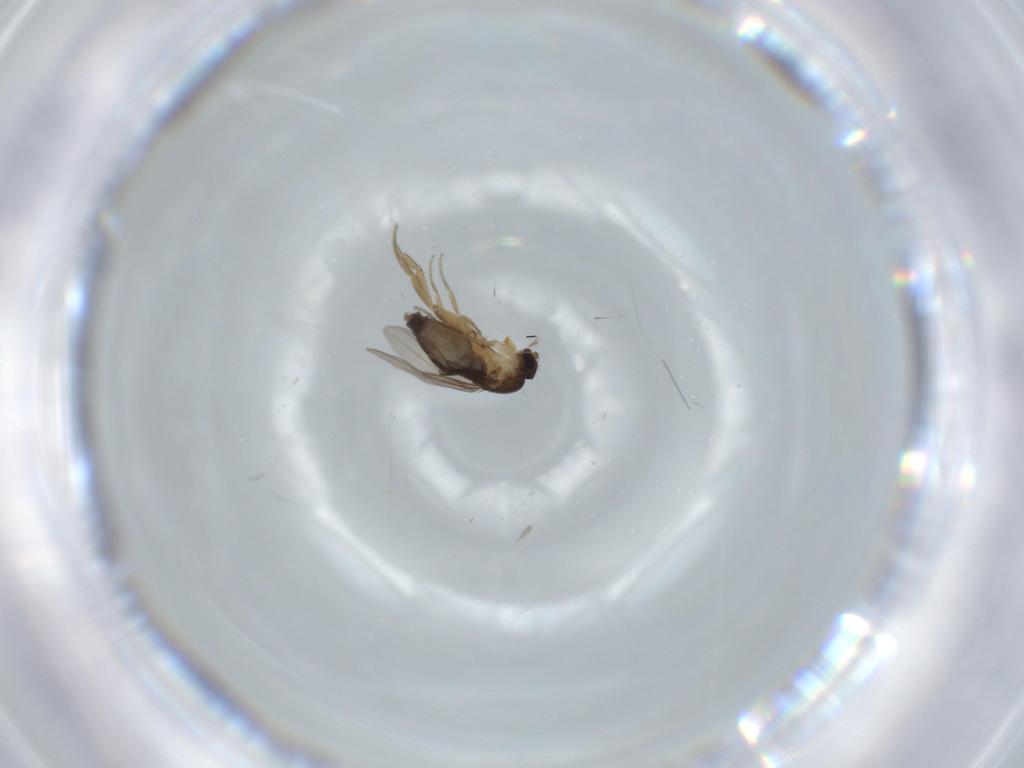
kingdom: Animalia
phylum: Arthropoda
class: Insecta
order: Diptera
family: Phoridae
